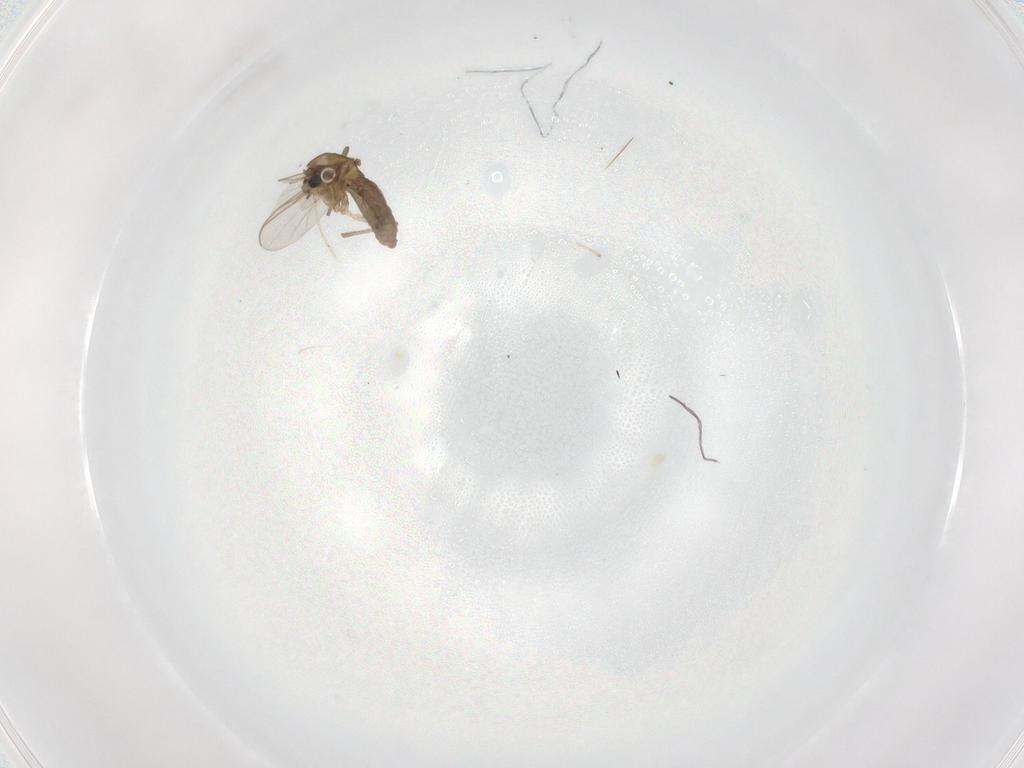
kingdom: Animalia
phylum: Arthropoda
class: Insecta
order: Diptera
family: Chironomidae
